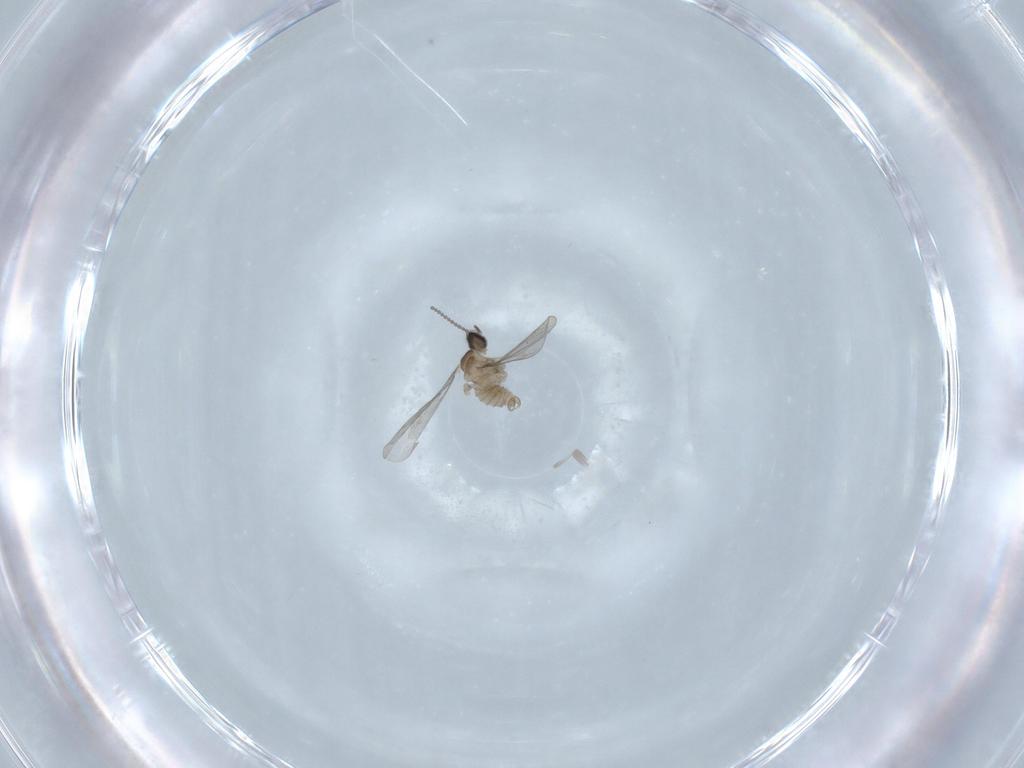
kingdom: Animalia
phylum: Arthropoda
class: Insecta
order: Diptera
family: Cecidomyiidae
